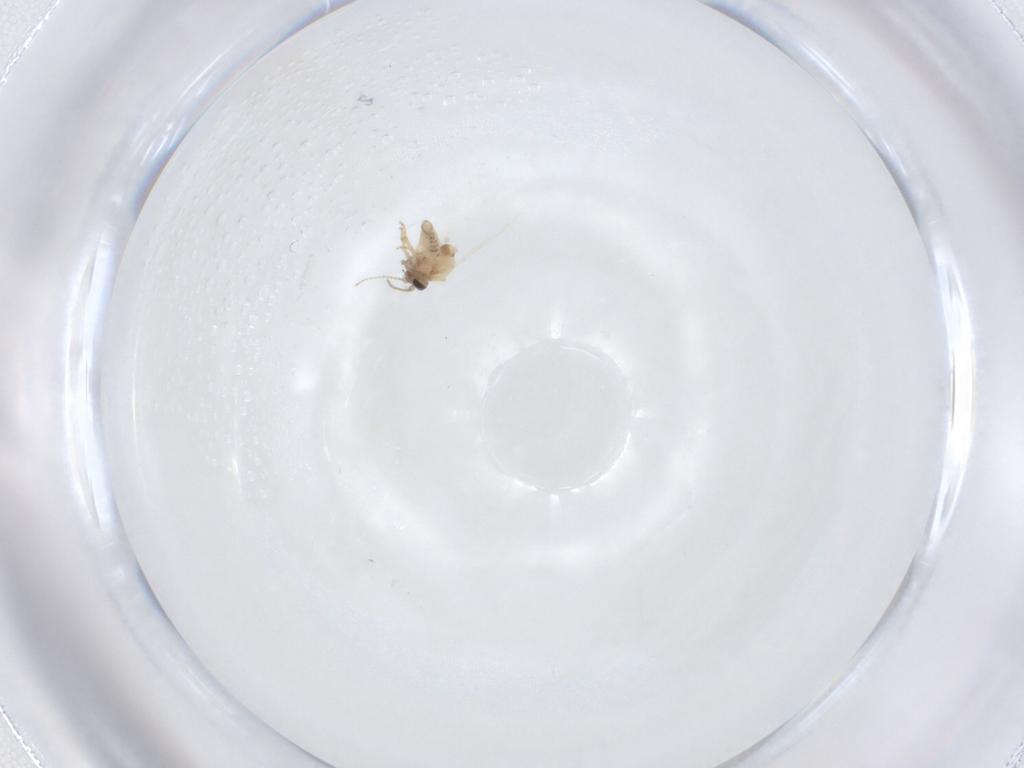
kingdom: Animalia
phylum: Arthropoda
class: Insecta
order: Diptera
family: Ceratopogonidae
